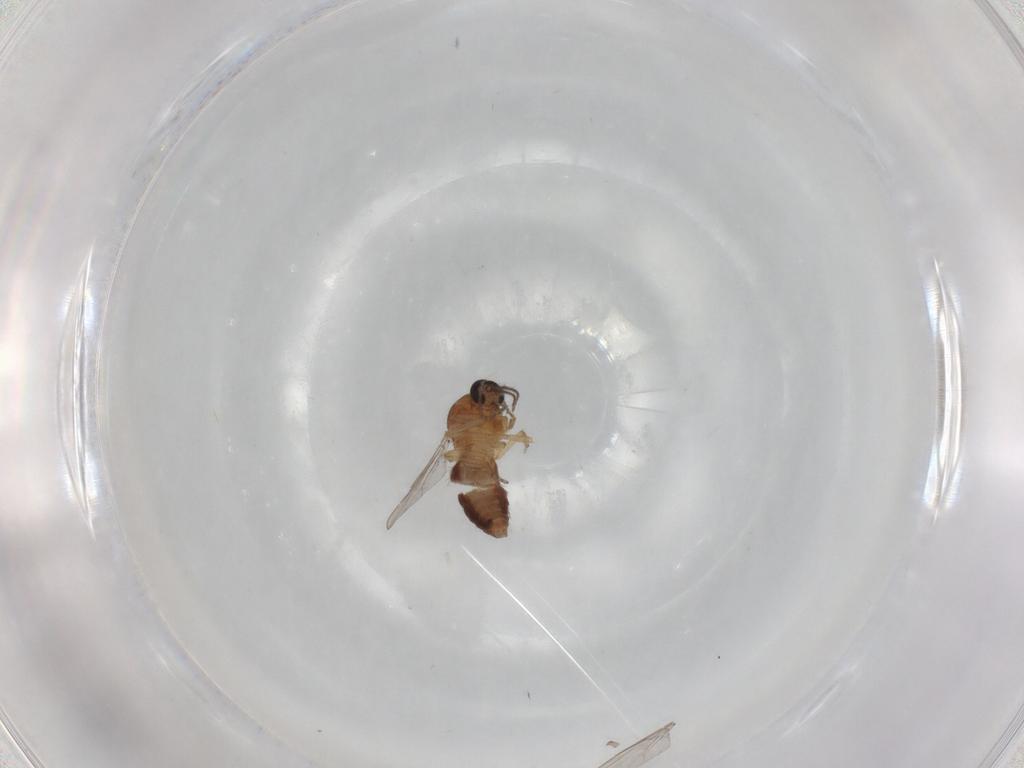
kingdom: Animalia
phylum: Arthropoda
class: Insecta
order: Diptera
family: Ceratopogonidae
